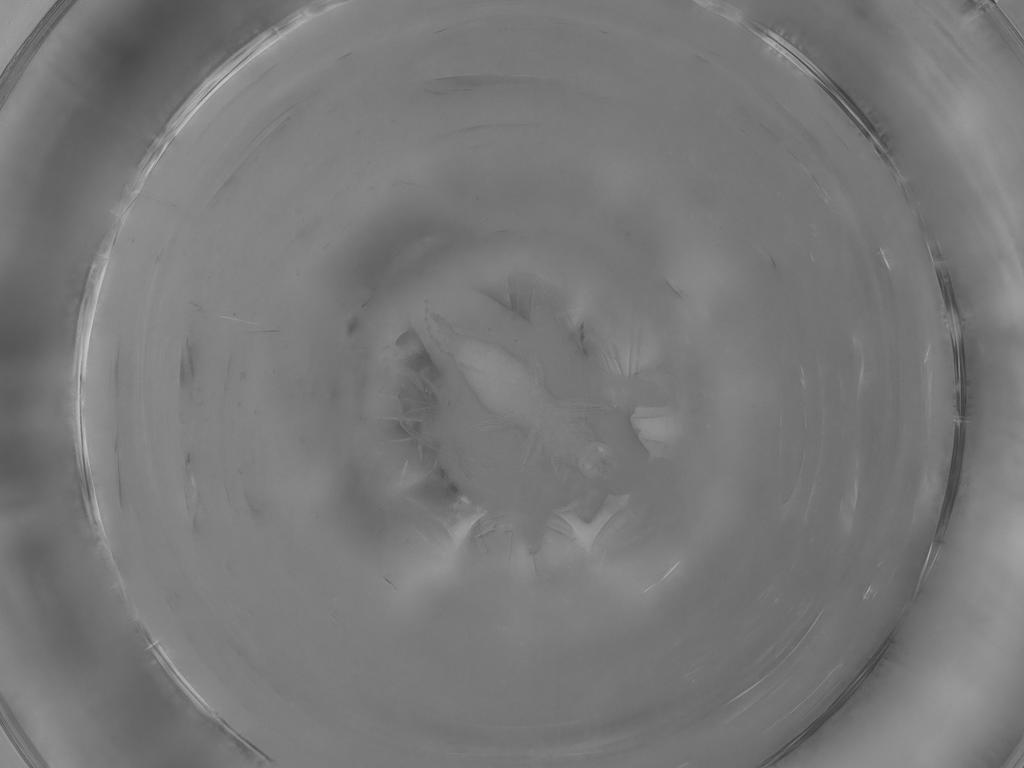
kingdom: Animalia
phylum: Arthropoda
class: Insecta
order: Diptera
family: Cecidomyiidae
